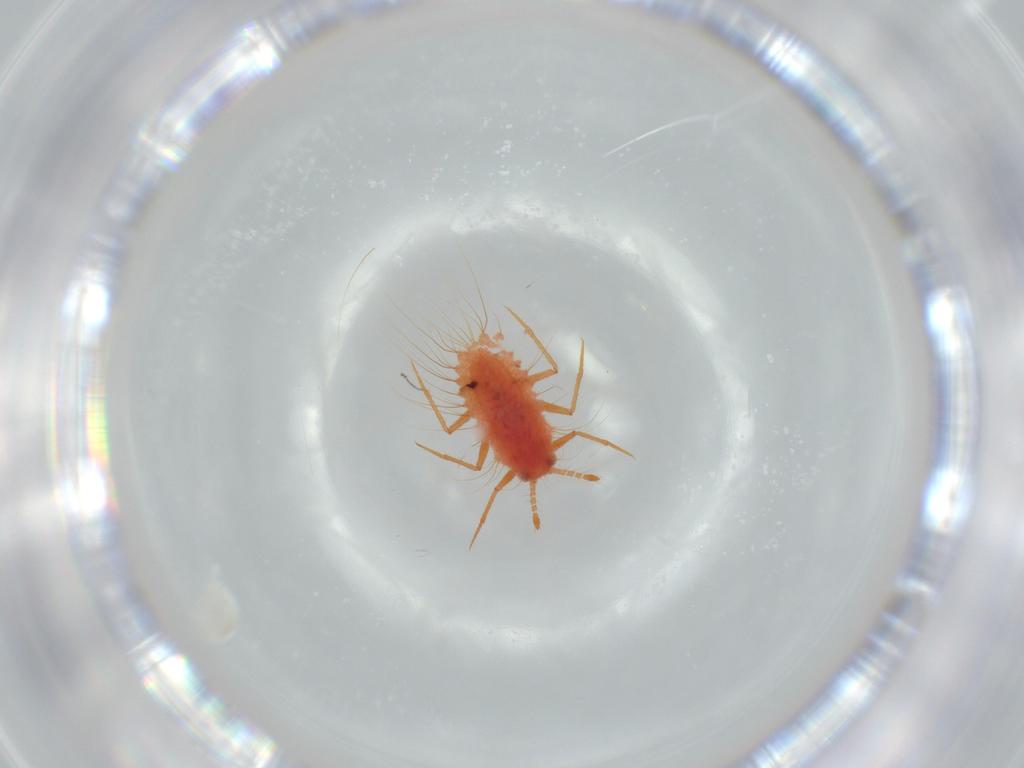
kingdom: Animalia
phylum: Arthropoda
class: Insecta
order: Hemiptera
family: Monophlebidae
